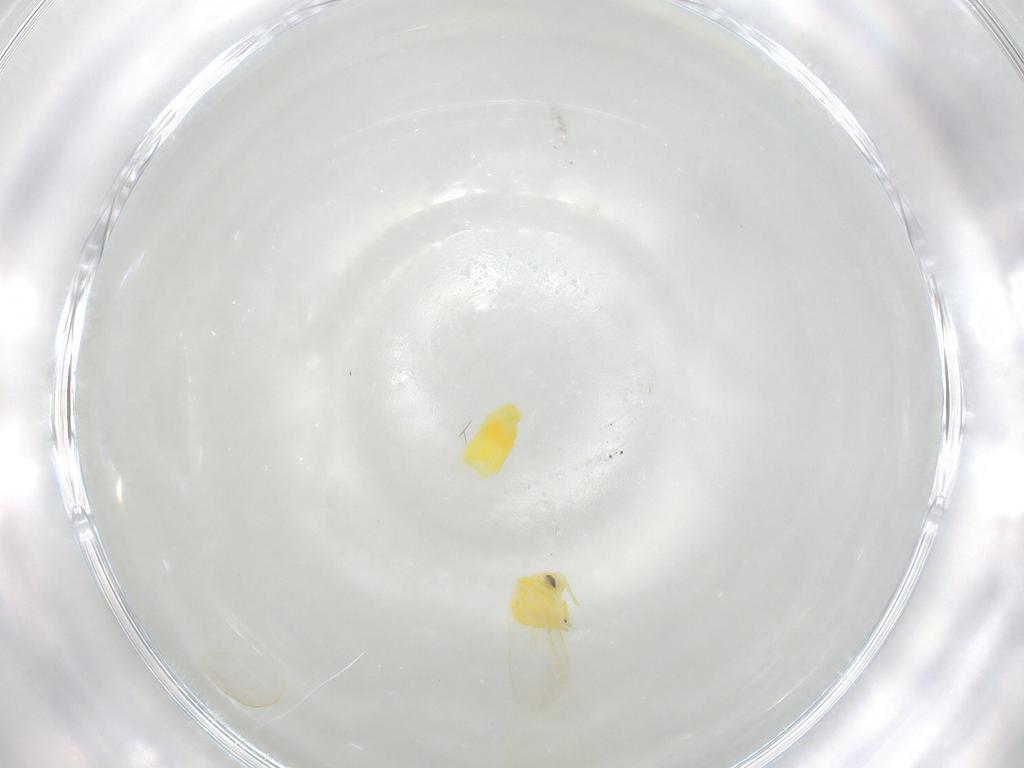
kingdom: Animalia
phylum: Arthropoda
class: Insecta
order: Hemiptera
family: Aleyrodidae
